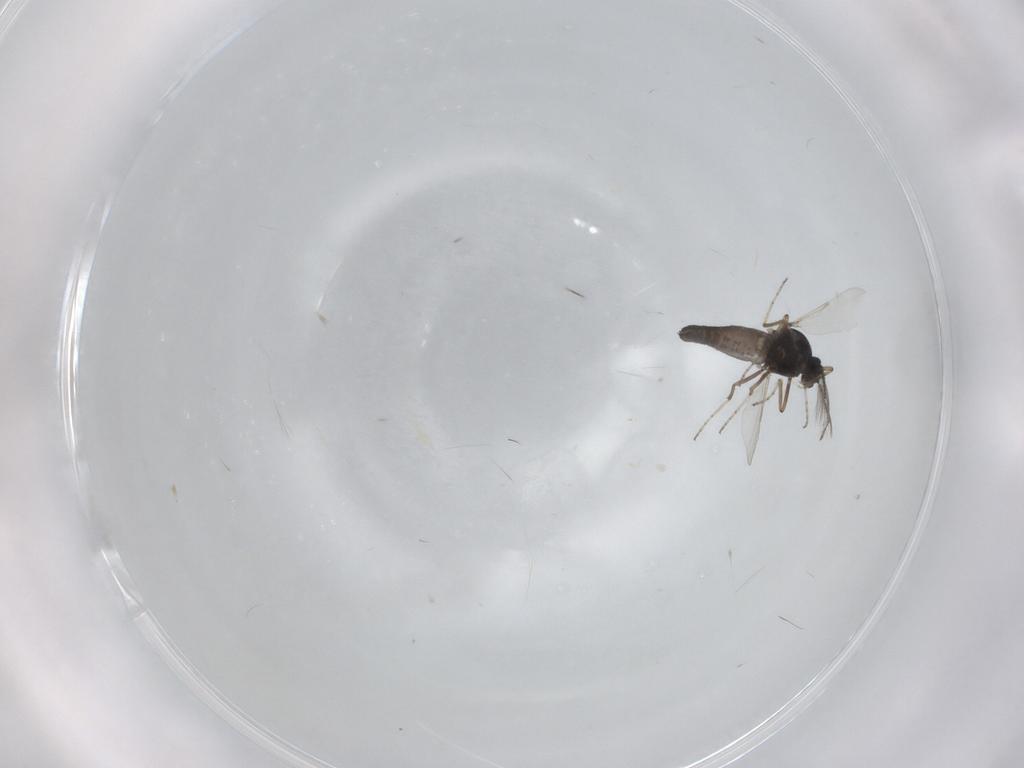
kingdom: Animalia
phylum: Arthropoda
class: Insecta
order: Diptera
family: Ceratopogonidae
